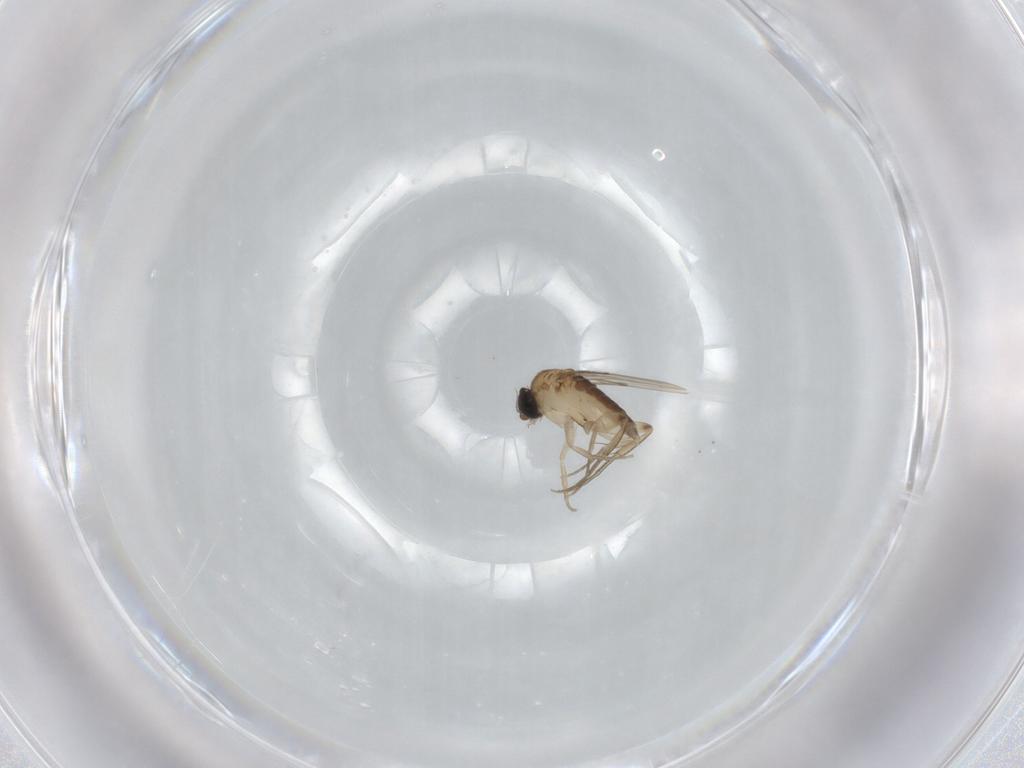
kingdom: Animalia
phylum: Arthropoda
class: Insecta
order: Diptera
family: Phoridae
